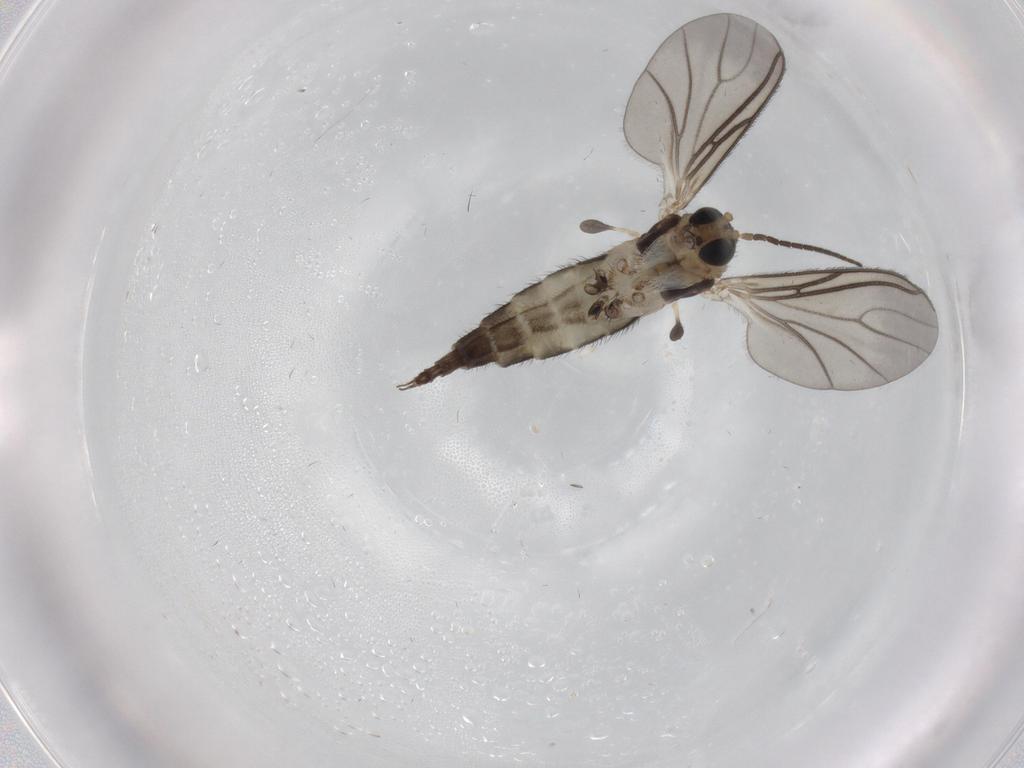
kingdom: Animalia
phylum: Arthropoda
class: Insecta
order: Diptera
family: Sciaridae
